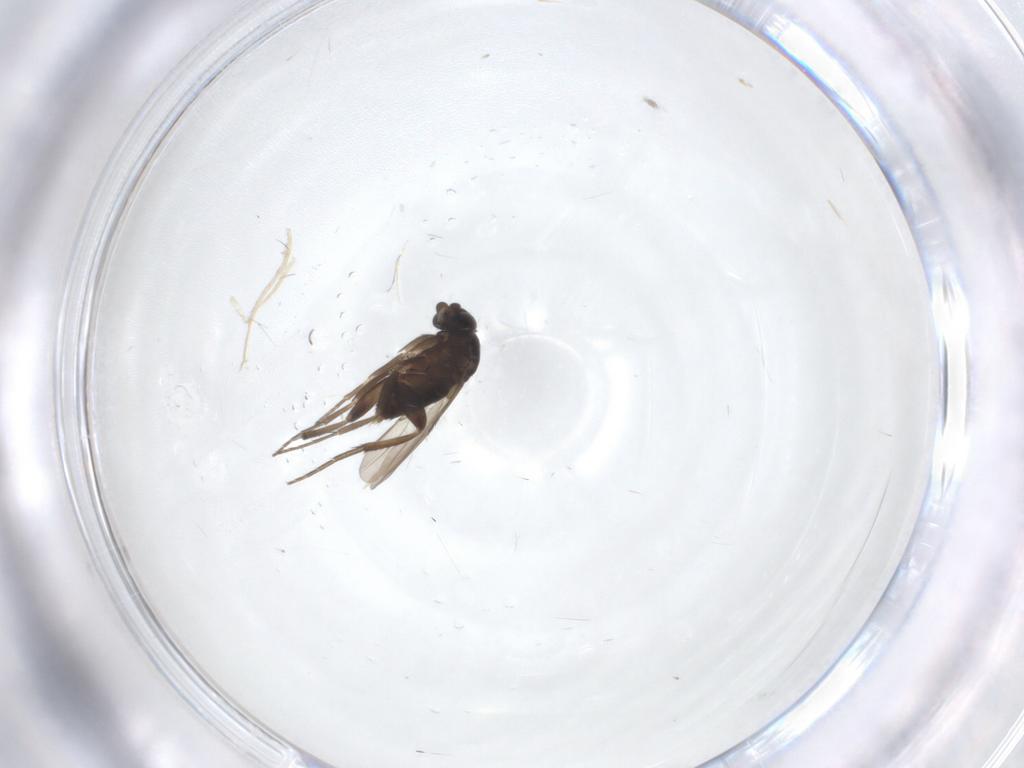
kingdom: Animalia
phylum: Arthropoda
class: Insecta
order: Diptera
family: Phoridae
